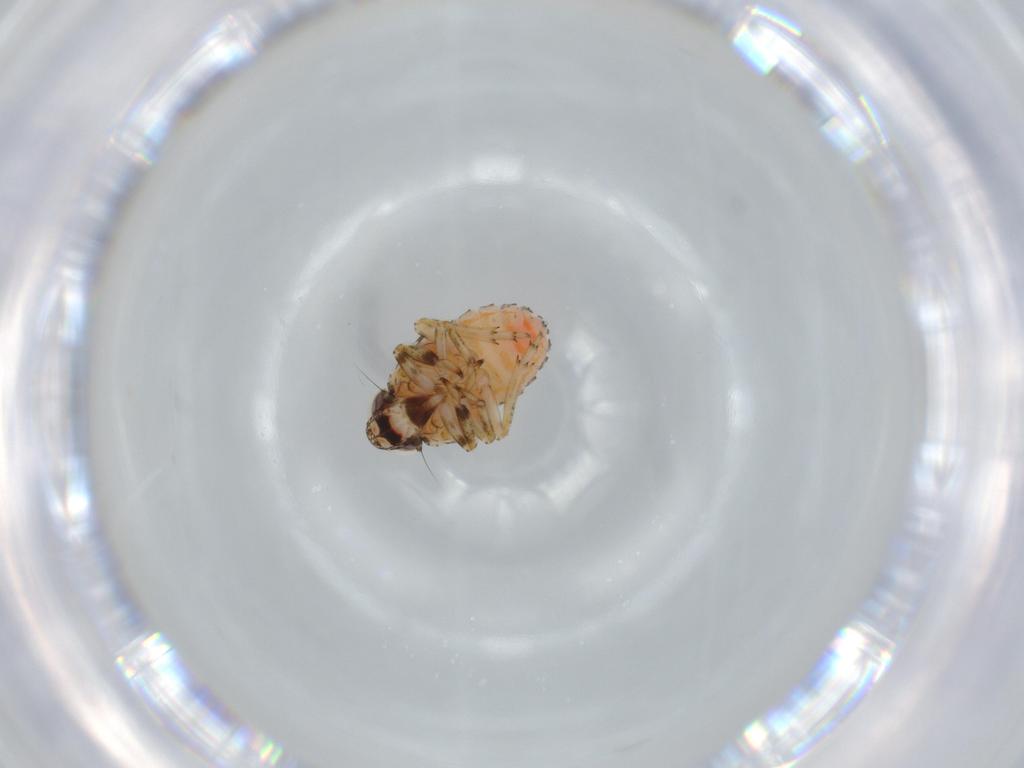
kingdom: Animalia
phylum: Arthropoda
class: Insecta
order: Hemiptera
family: Issidae
